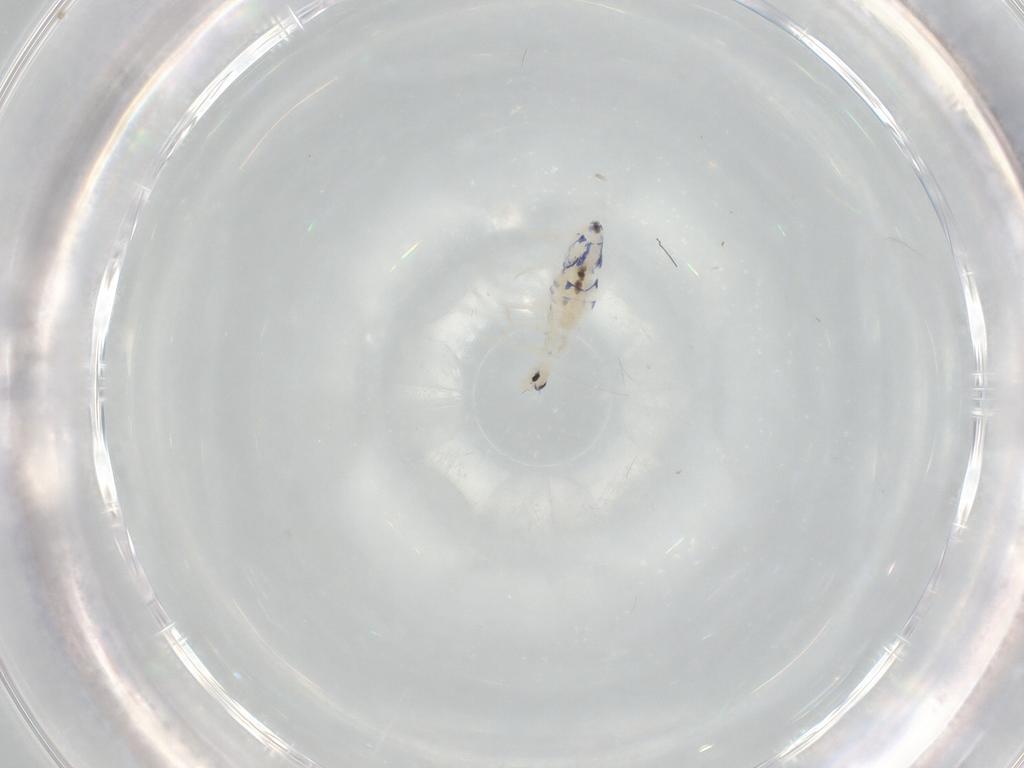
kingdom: Animalia
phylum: Arthropoda
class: Collembola
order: Entomobryomorpha
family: Entomobryidae
